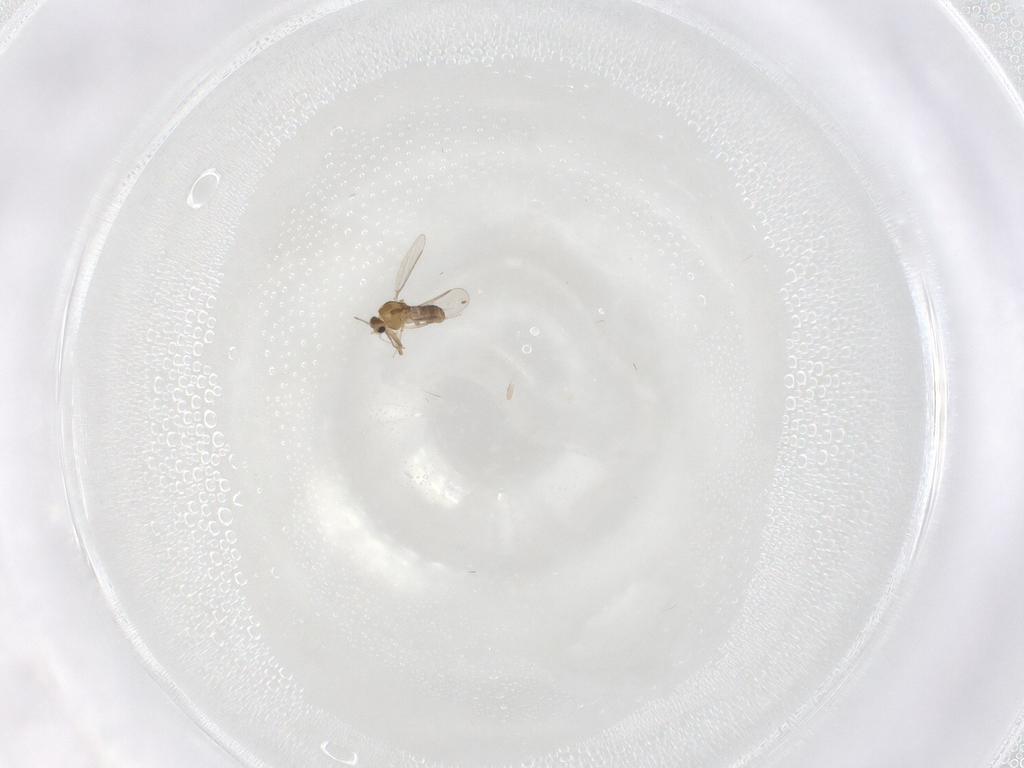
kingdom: Animalia
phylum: Arthropoda
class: Insecta
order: Diptera
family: Chironomidae
